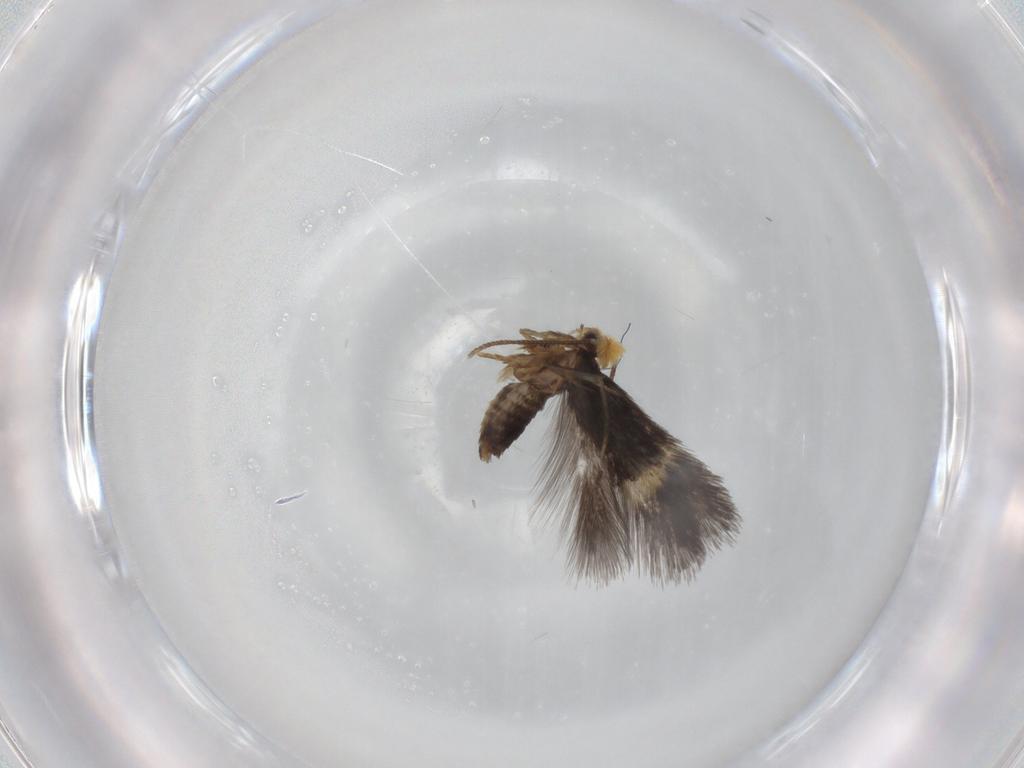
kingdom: Animalia
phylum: Arthropoda
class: Insecta
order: Lepidoptera
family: Nepticulidae
